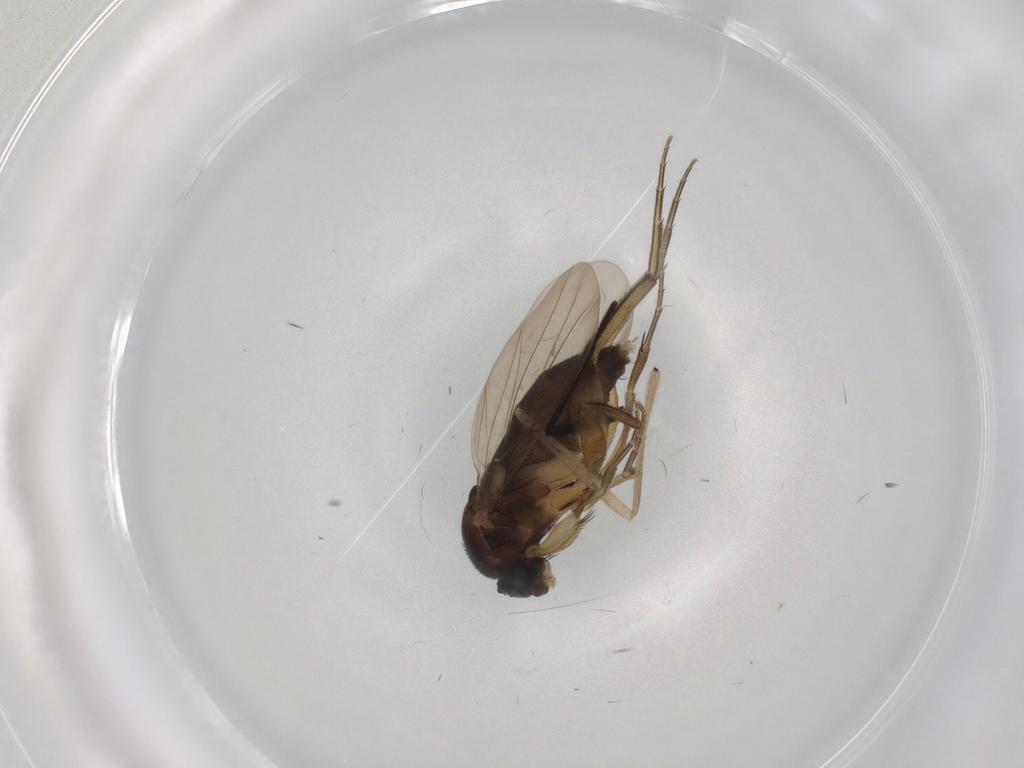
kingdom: Animalia
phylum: Arthropoda
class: Insecta
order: Diptera
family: Phoridae
